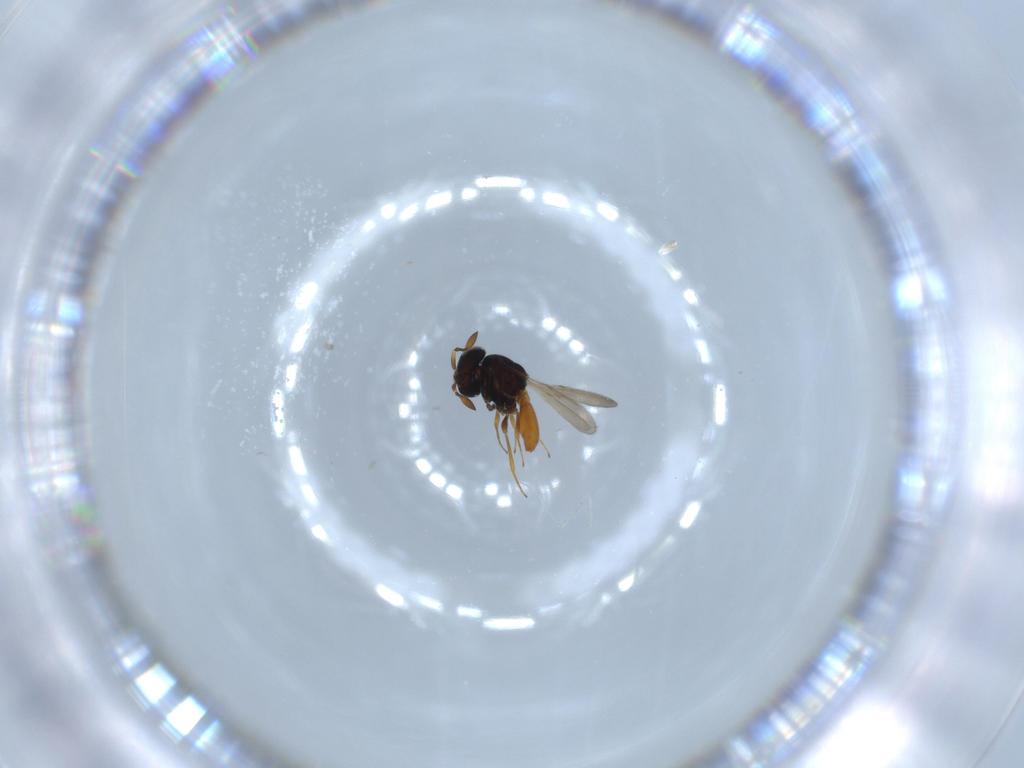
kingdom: Animalia
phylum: Arthropoda
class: Insecta
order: Hymenoptera
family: Scelionidae
